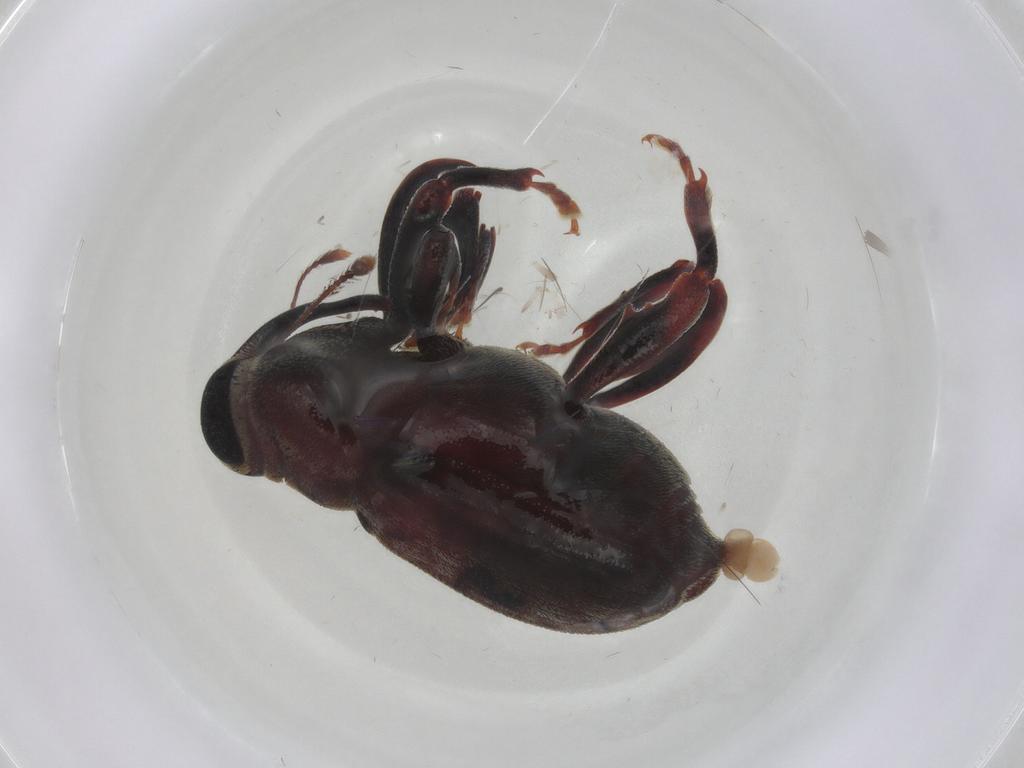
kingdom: Animalia
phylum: Arthropoda
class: Insecta
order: Coleoptera
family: Curculionidae
